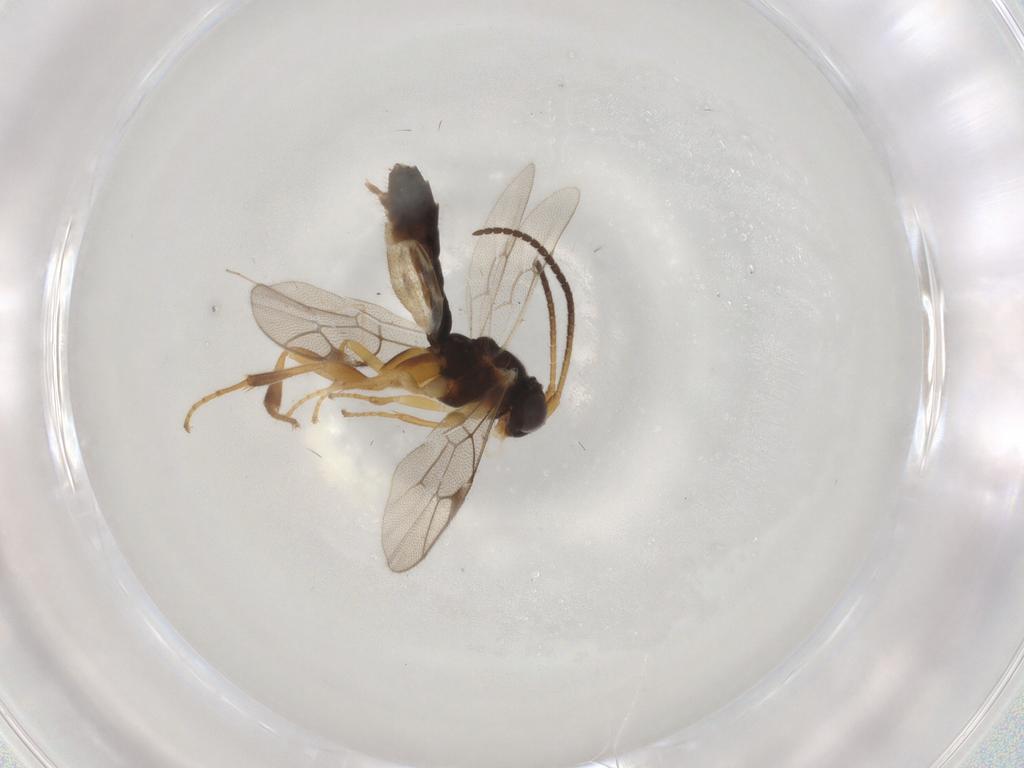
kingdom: Animalia
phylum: Arthropoda
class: Insecta
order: Hymenoptera
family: Ichneumonidae
